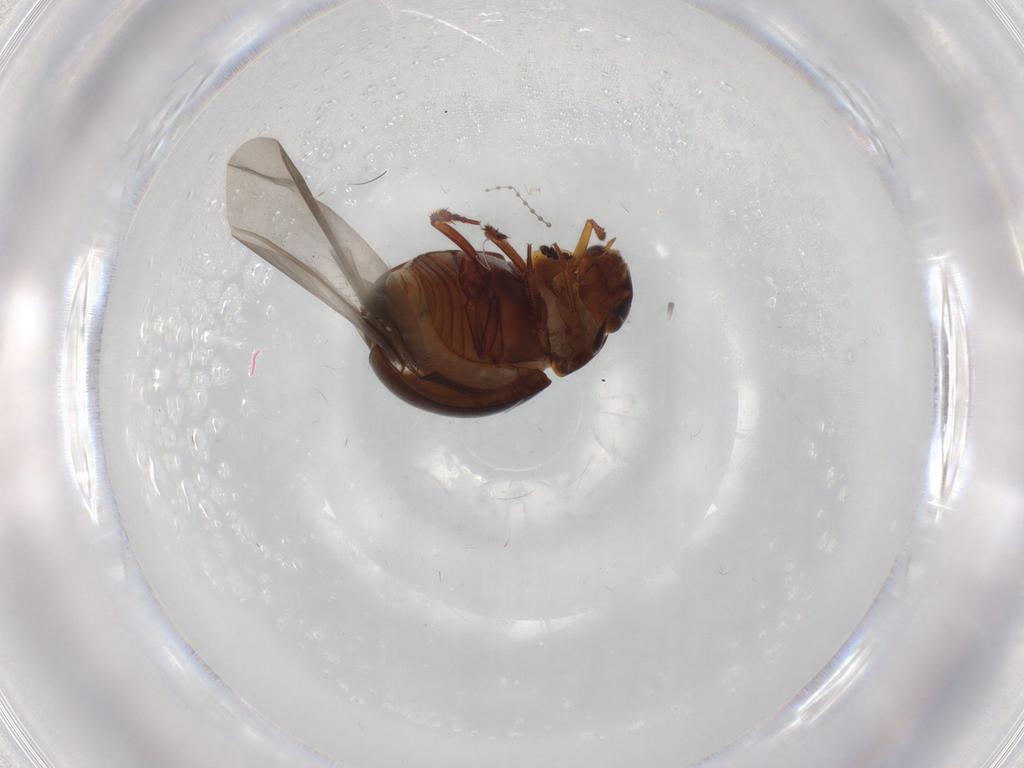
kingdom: Animalia
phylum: Arthropoda
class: Insecta
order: Coleoptera
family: Leiodidae
